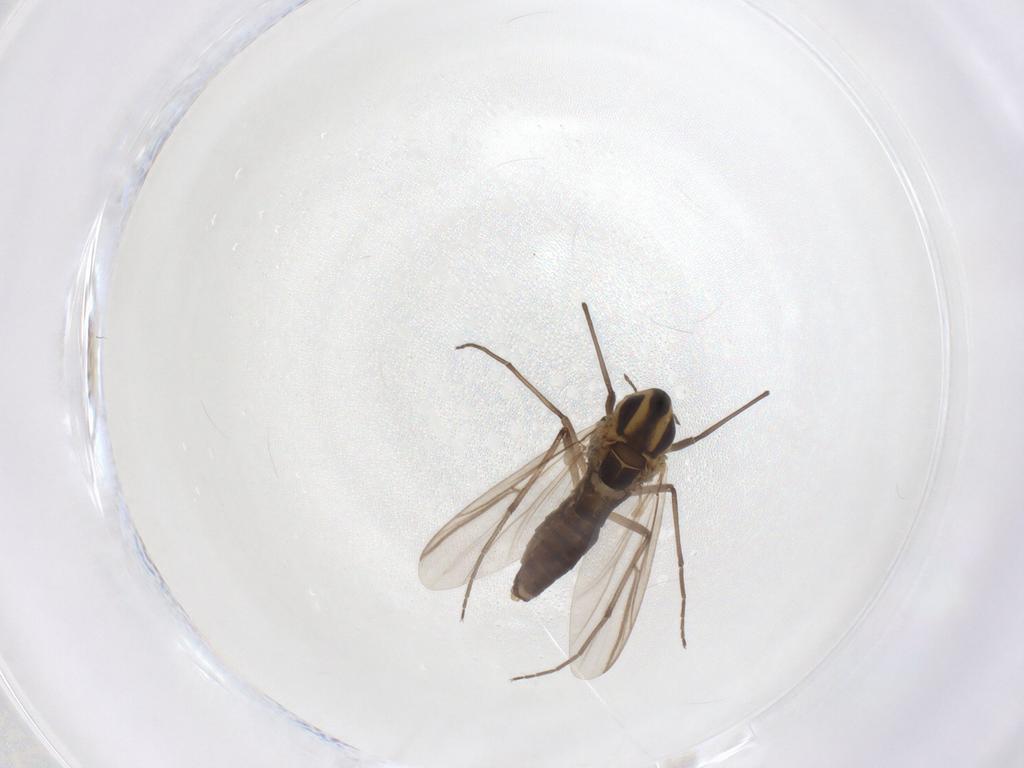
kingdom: Animalia
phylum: Arthropoda
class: Insecta
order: Diptera
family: Chironomidae
